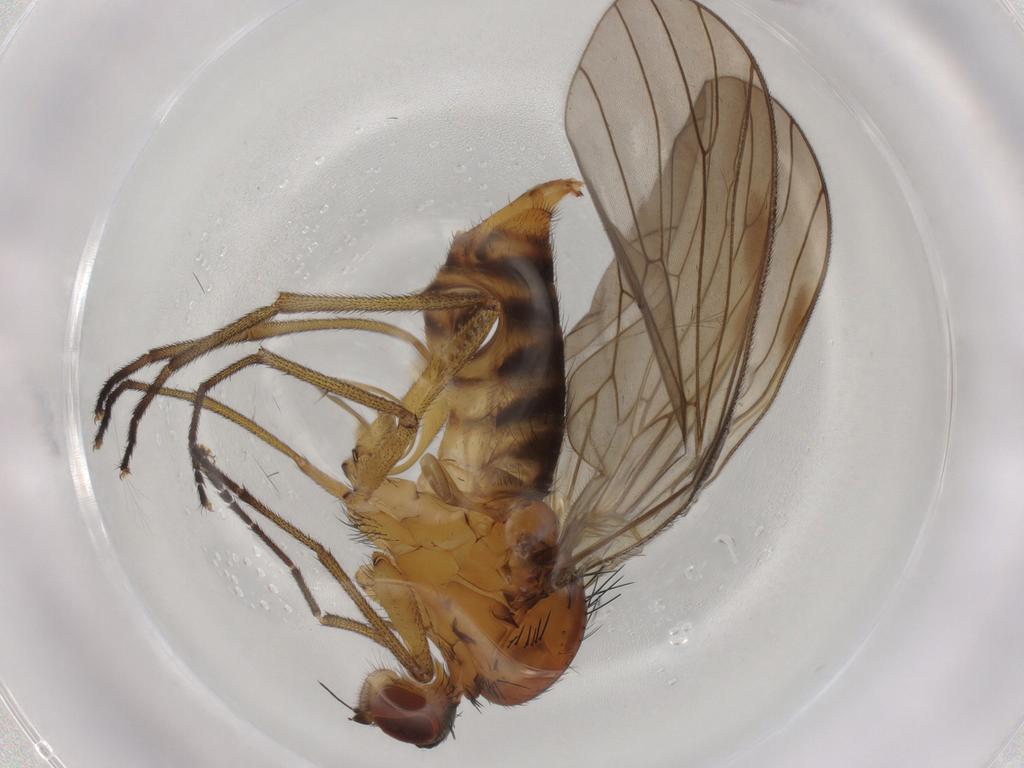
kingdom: Animalia
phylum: Arthropoda
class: Insecta
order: Diptera
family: Brachystomatidae
